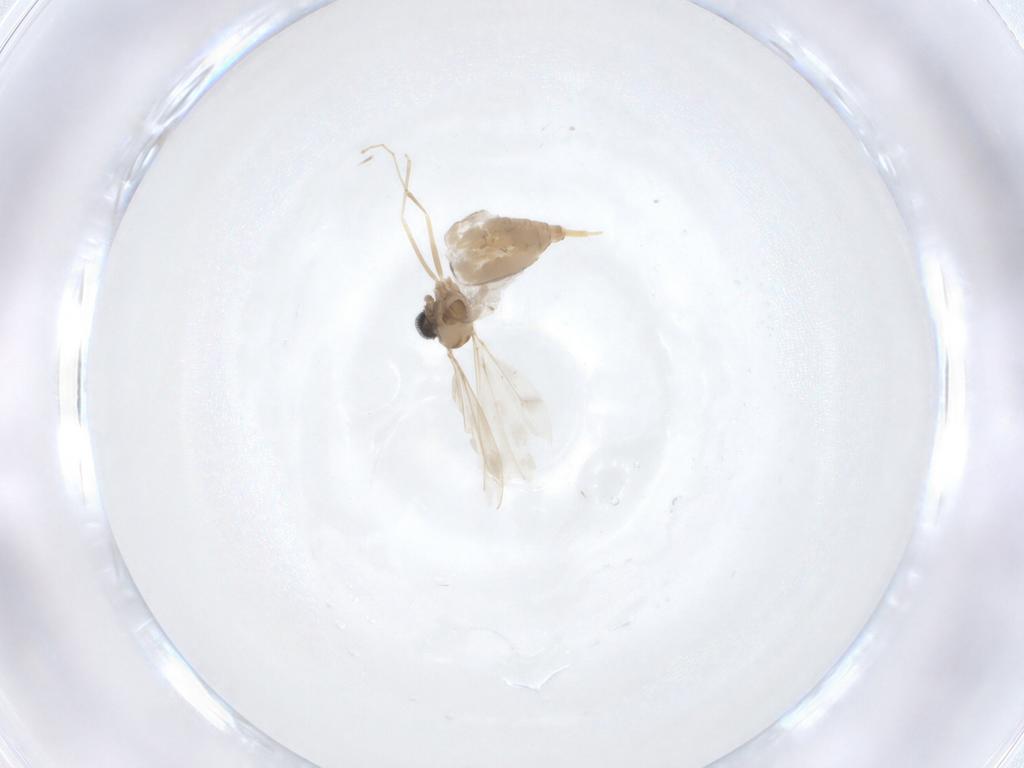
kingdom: Animalia
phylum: Arthropoda
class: Insecta
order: Diptera
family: Cecidomyiidae
